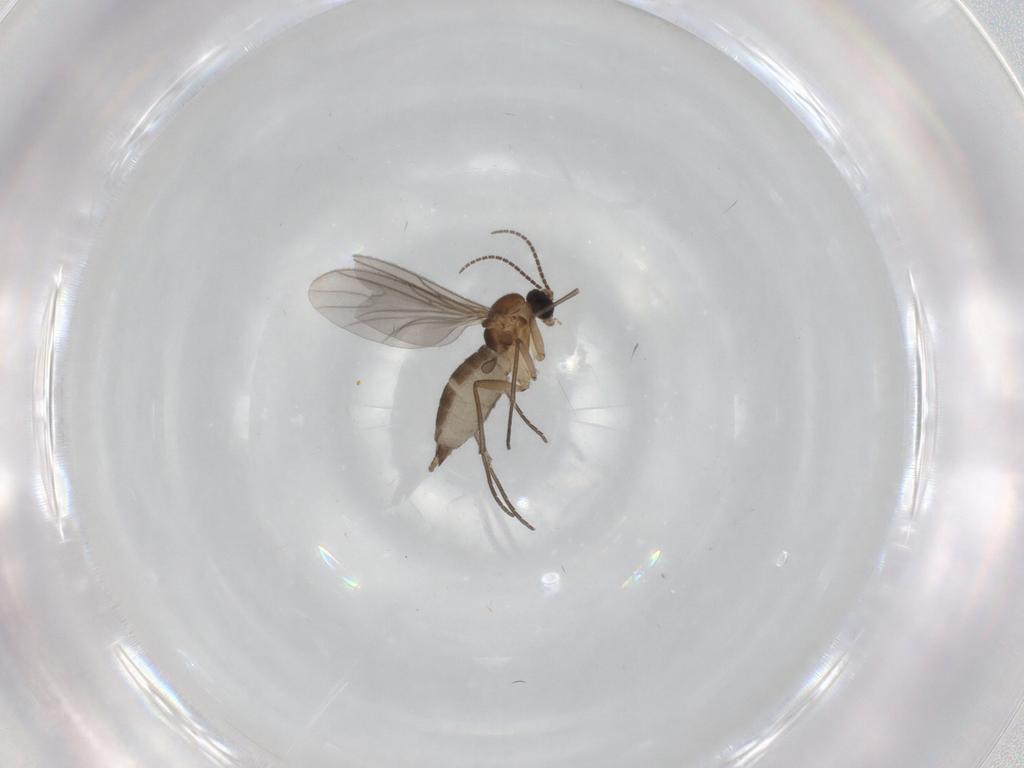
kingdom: Animalia
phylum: Arthropoda
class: Insecta
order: Diptera
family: Sciaridae
